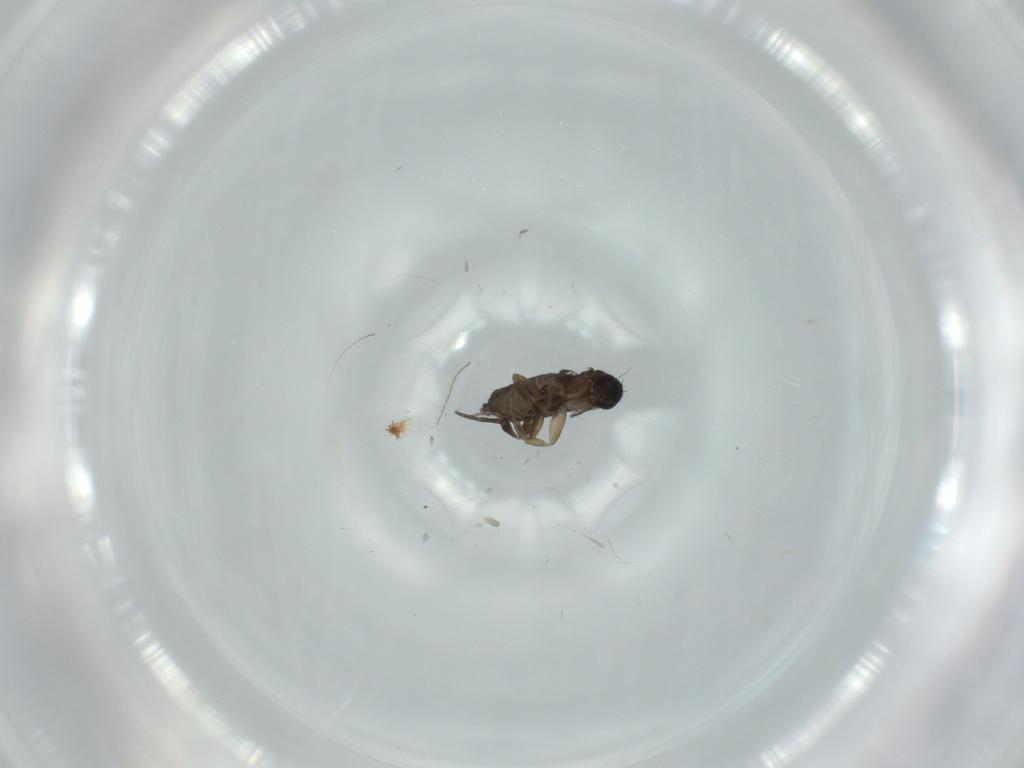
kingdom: Animalia
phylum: Arthropoda
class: Insecta
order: Diptera
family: Phoridae
